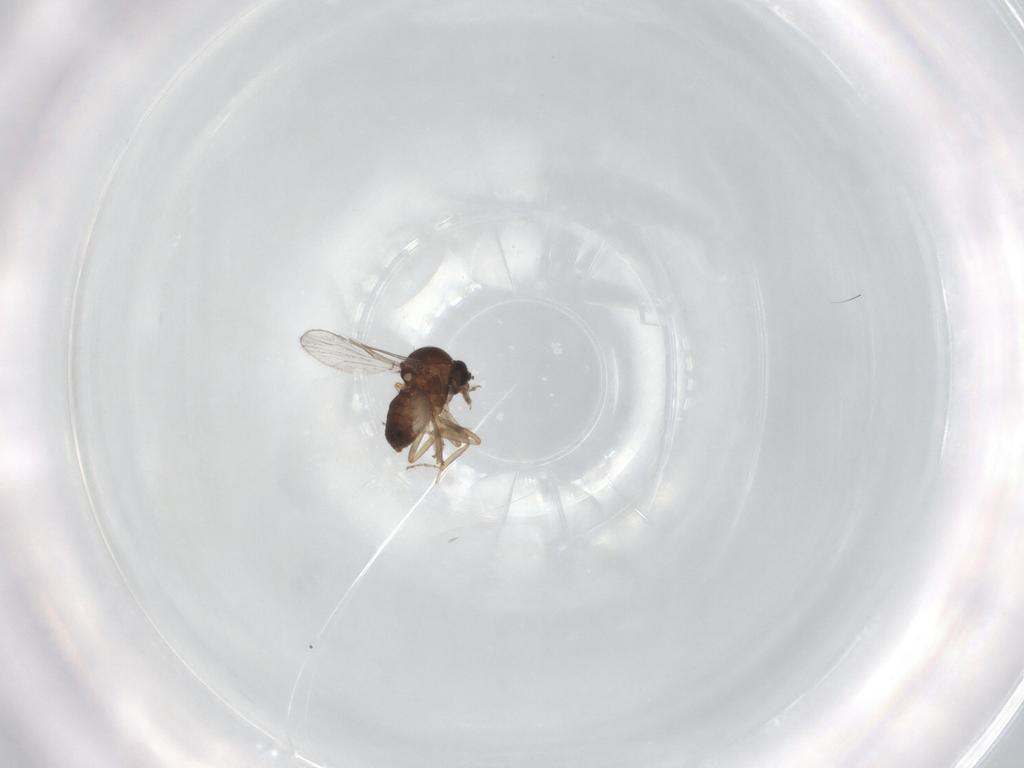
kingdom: Animalia
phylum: Arthropoda
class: Insecta
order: Diptera
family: Ceratopogonidae
